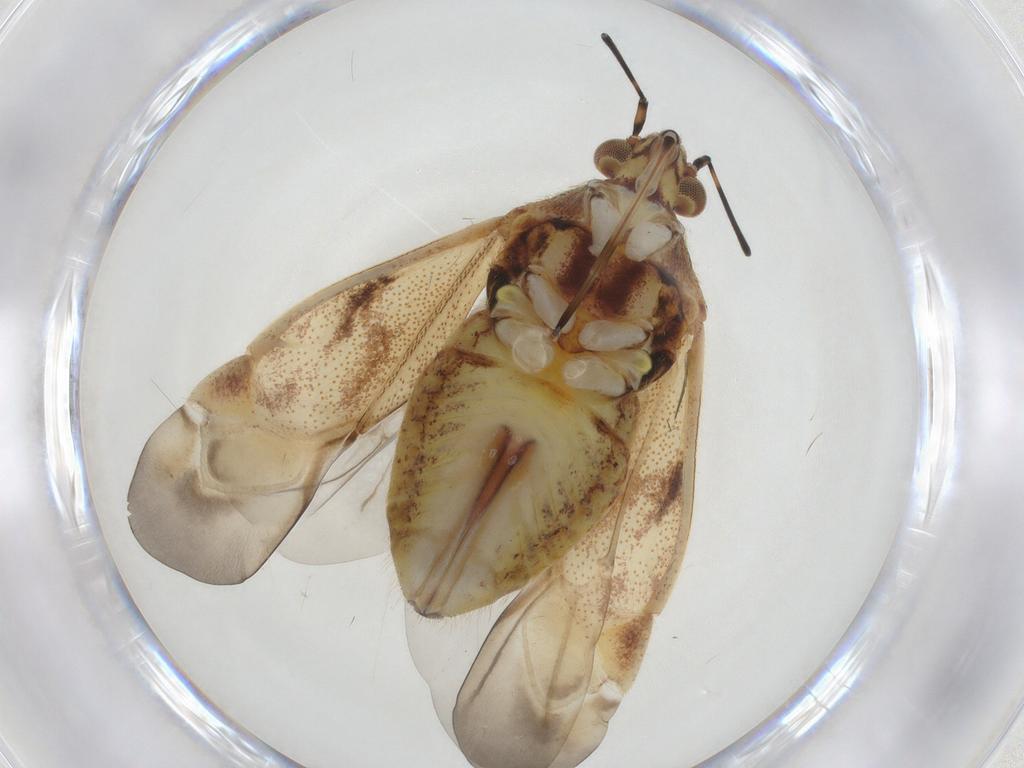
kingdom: Animalia
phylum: Arthropoda
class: Insecta
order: Hemiptera
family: Miridae
